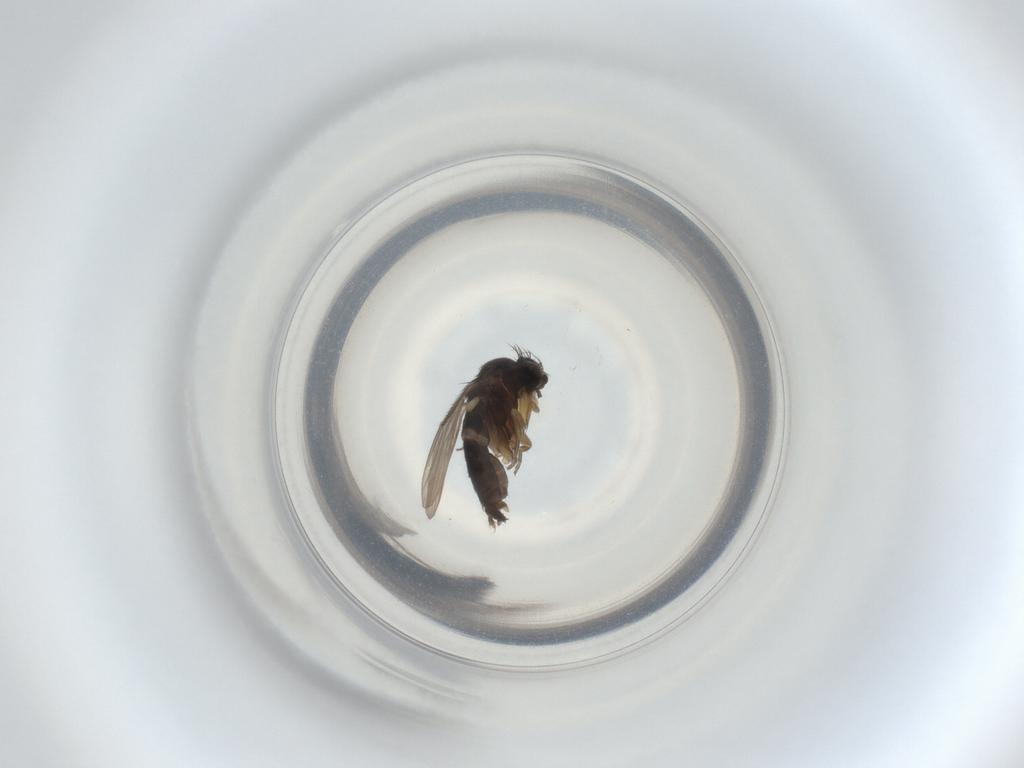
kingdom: Animalia
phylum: Arthropoda
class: Insecta
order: Diptera
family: Phoridae
